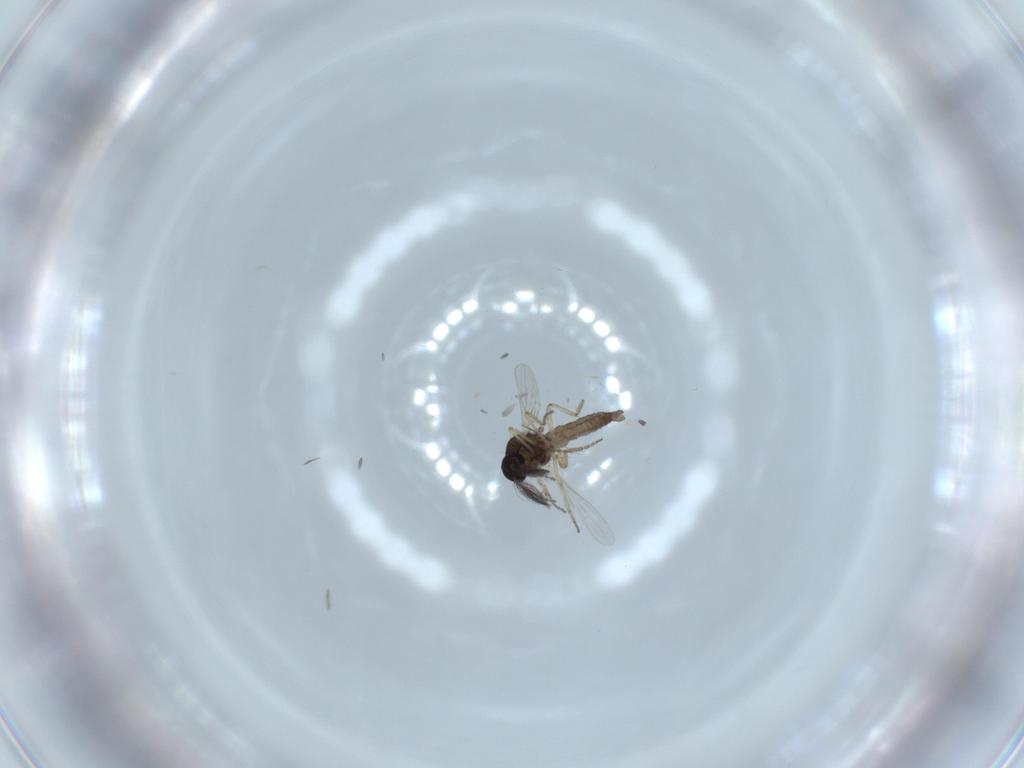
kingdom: Animalia
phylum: Arthropoda
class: Insecta
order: Diptera
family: Ceratopogonidae
